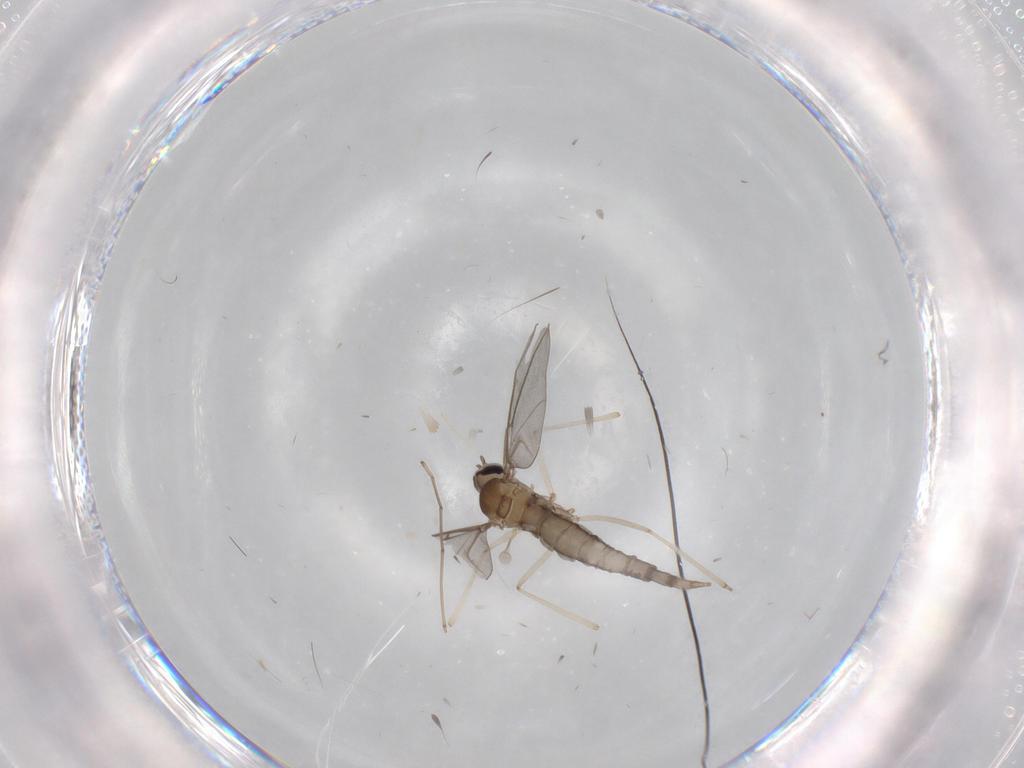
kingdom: Animalia
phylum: Arthropoda
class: Insecta
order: Diptera
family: Cecidomyiidae
